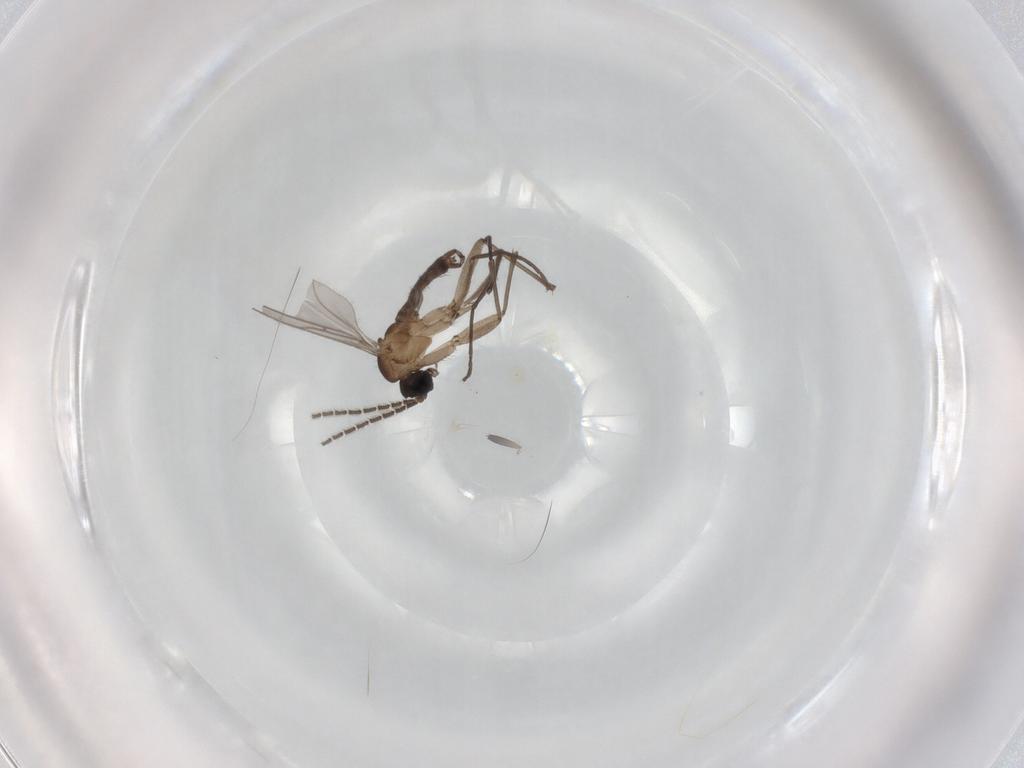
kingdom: Animalia
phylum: Arthropoda
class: Insecta
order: Diptera
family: Sciaridae
